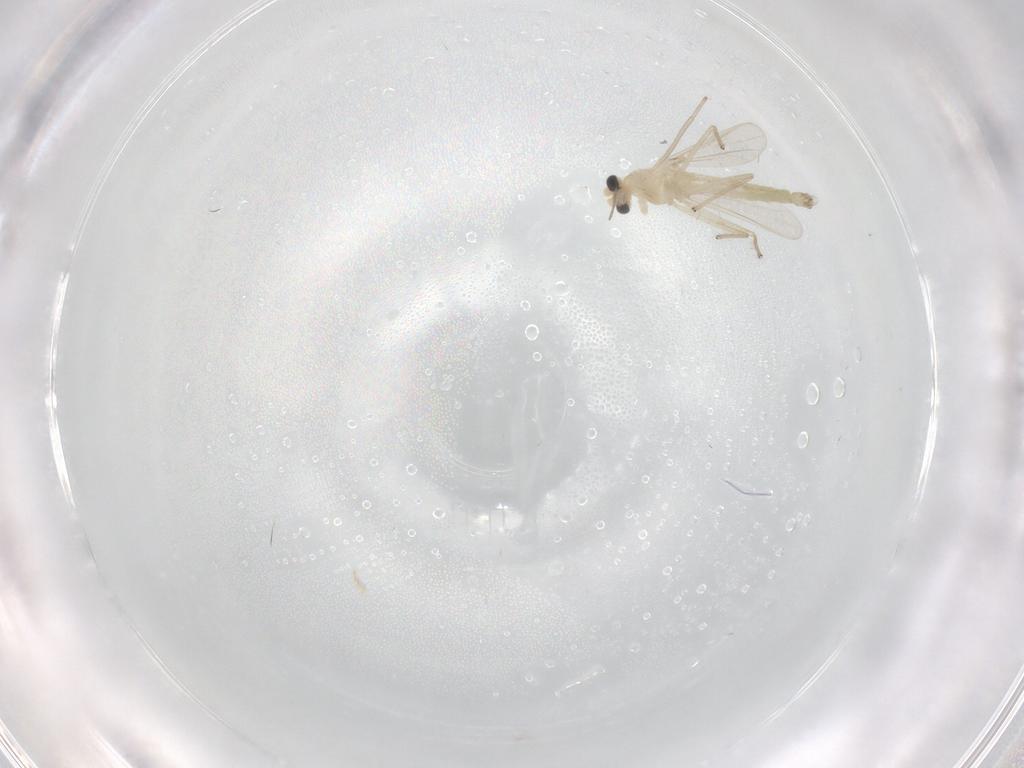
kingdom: Animalia
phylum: Arthropoda
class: Insecta
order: Diptera
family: Chironomidae
